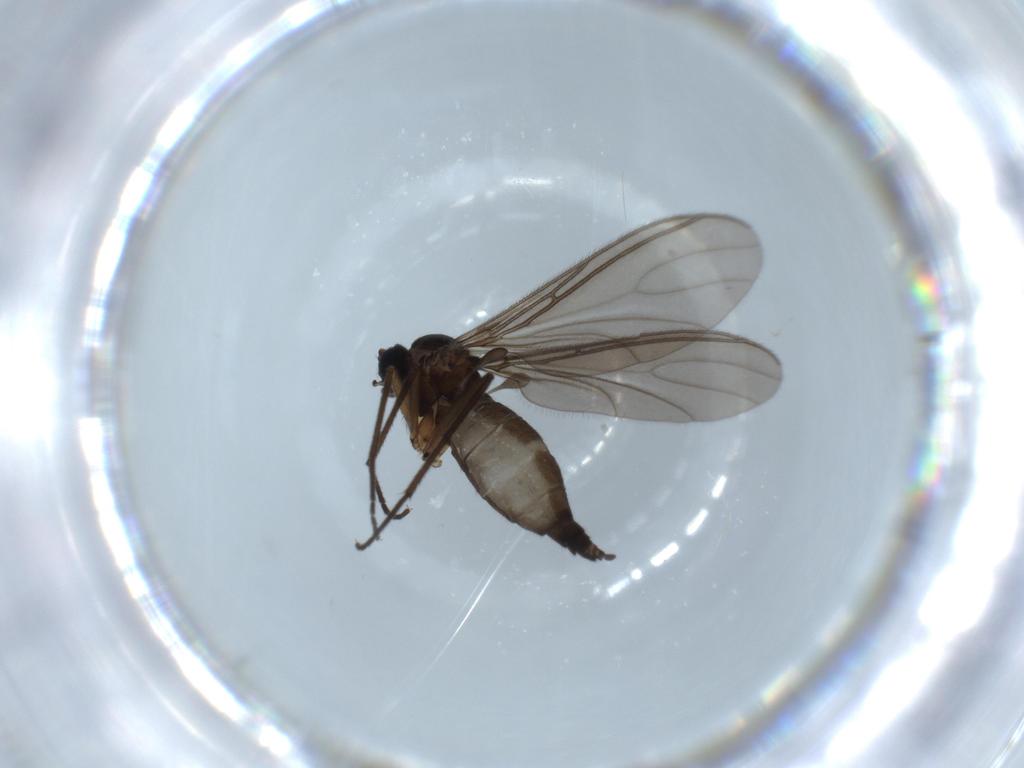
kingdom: Animalia
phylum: Arthropoda
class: Insecta
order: Diptera
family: Sciaridae
